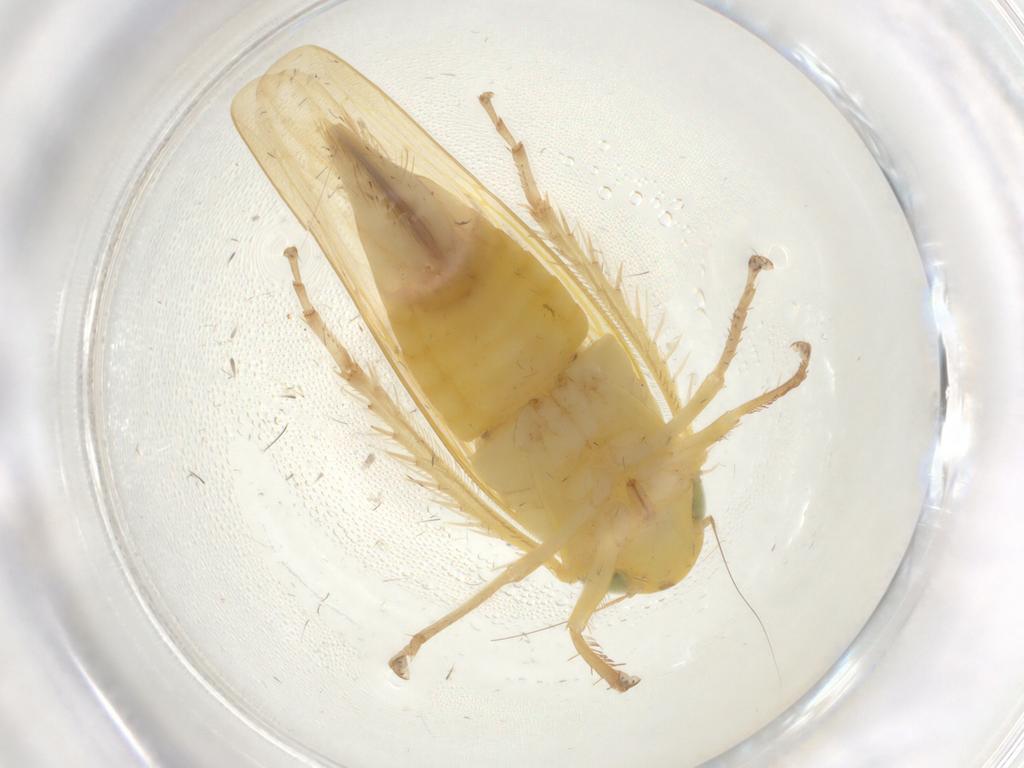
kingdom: Animalia
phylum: Arthropoda
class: Insecta
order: Hemiptera
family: Cicadellidae
